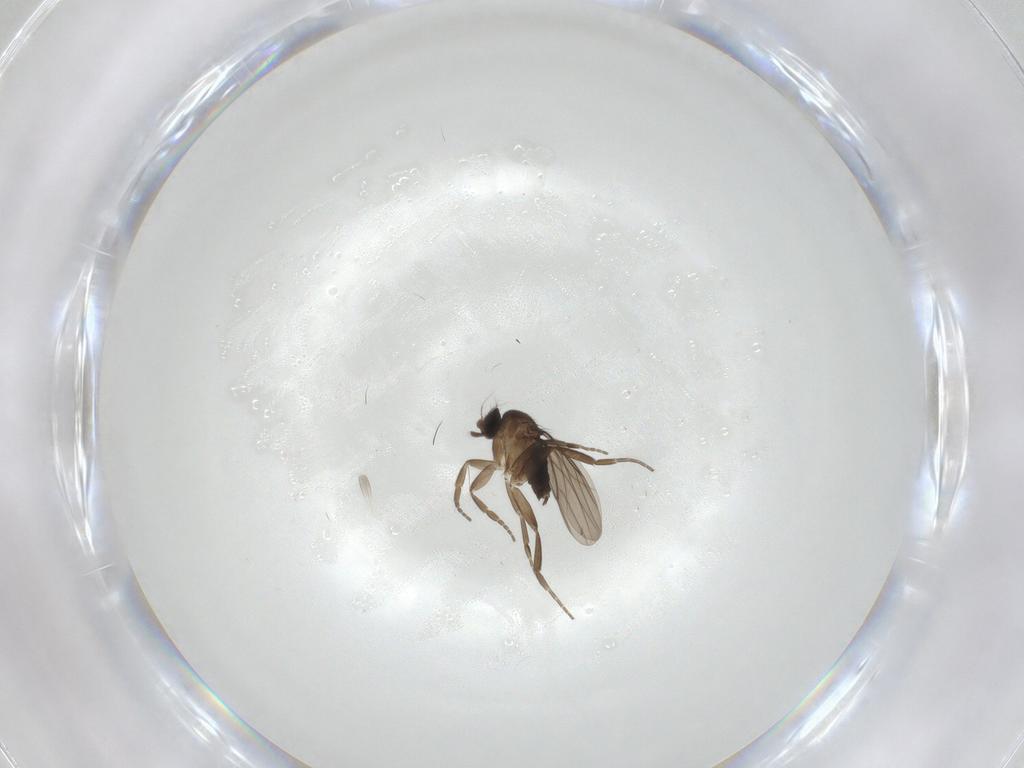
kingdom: Animalia
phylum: Arthropoda
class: Insecta
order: Diptera
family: Phoridae
